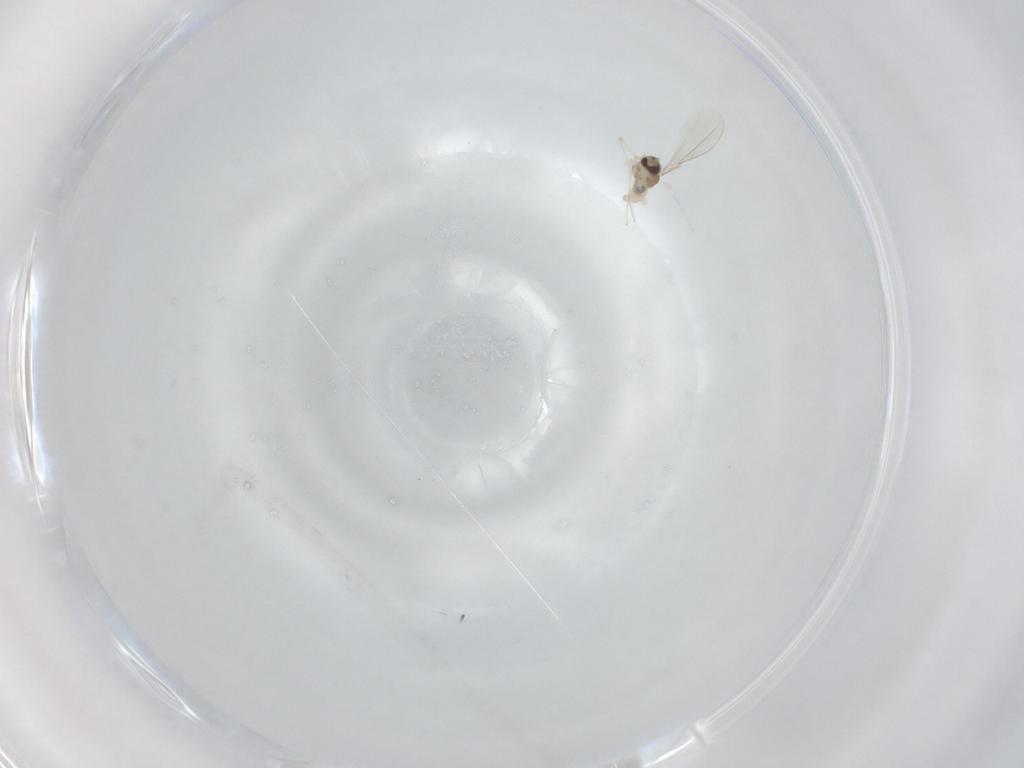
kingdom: Animalia
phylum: Arthropoda
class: Insecta
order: Diptera
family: Cecidomyiidae
